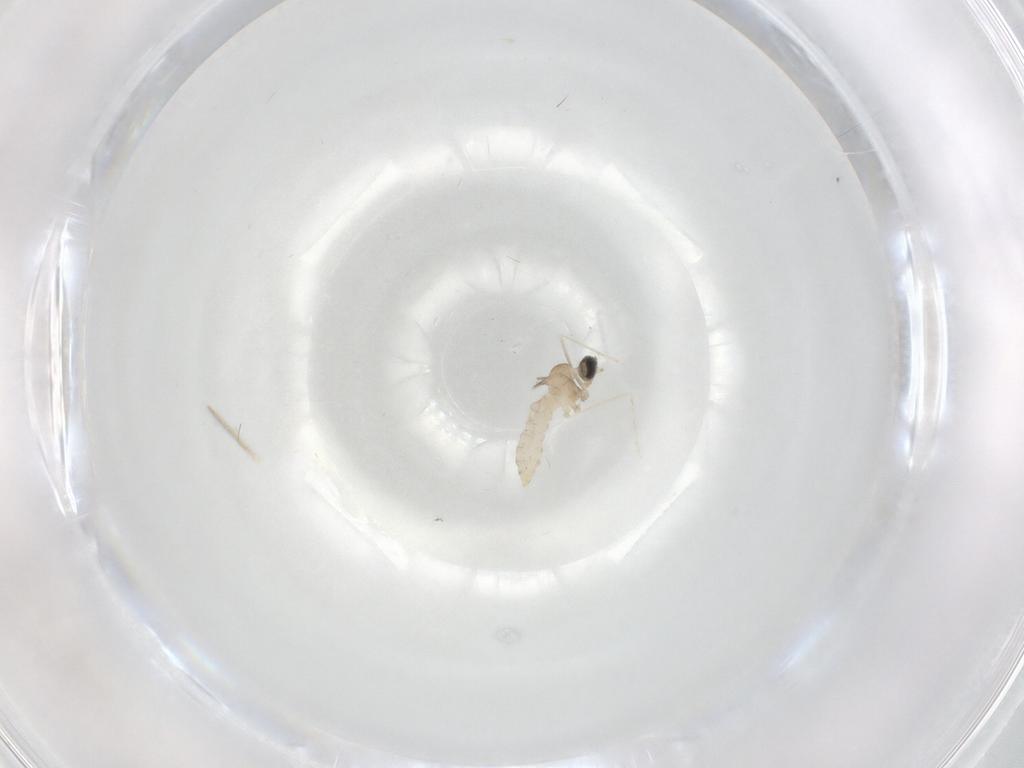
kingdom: Animalia
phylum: Arthropoda
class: Insecta
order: Diptera
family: Cecidomyiidae
